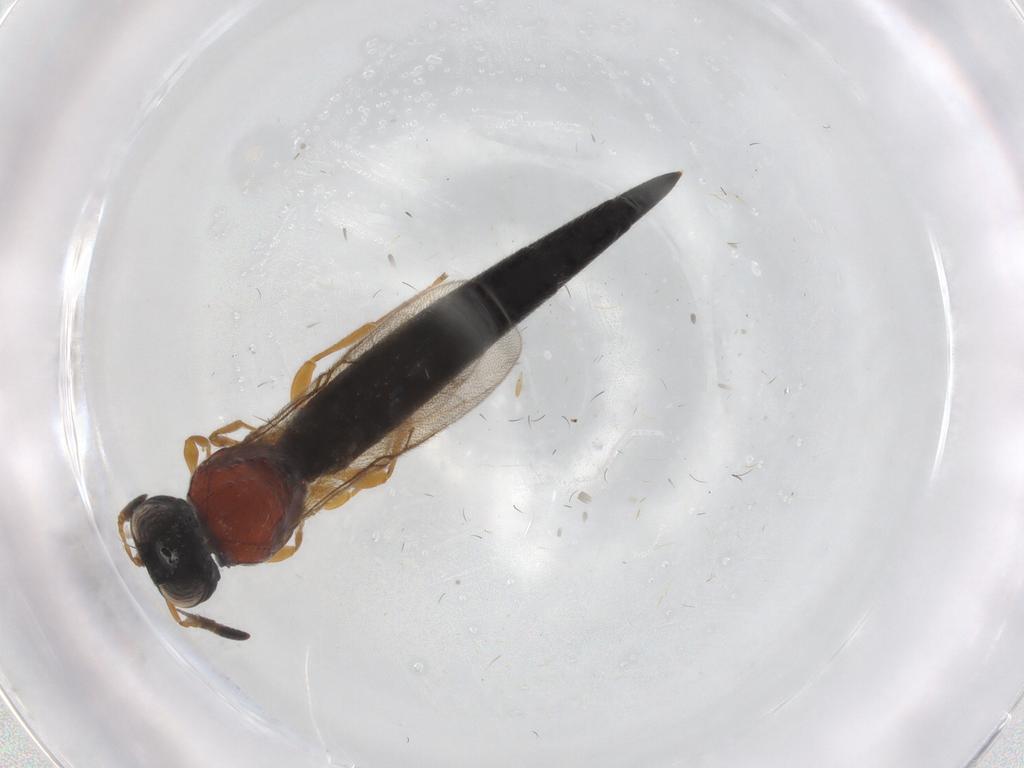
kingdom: Animalia
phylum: Arthropoda
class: Insecta
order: Hymenoptera
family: Scelionidae
